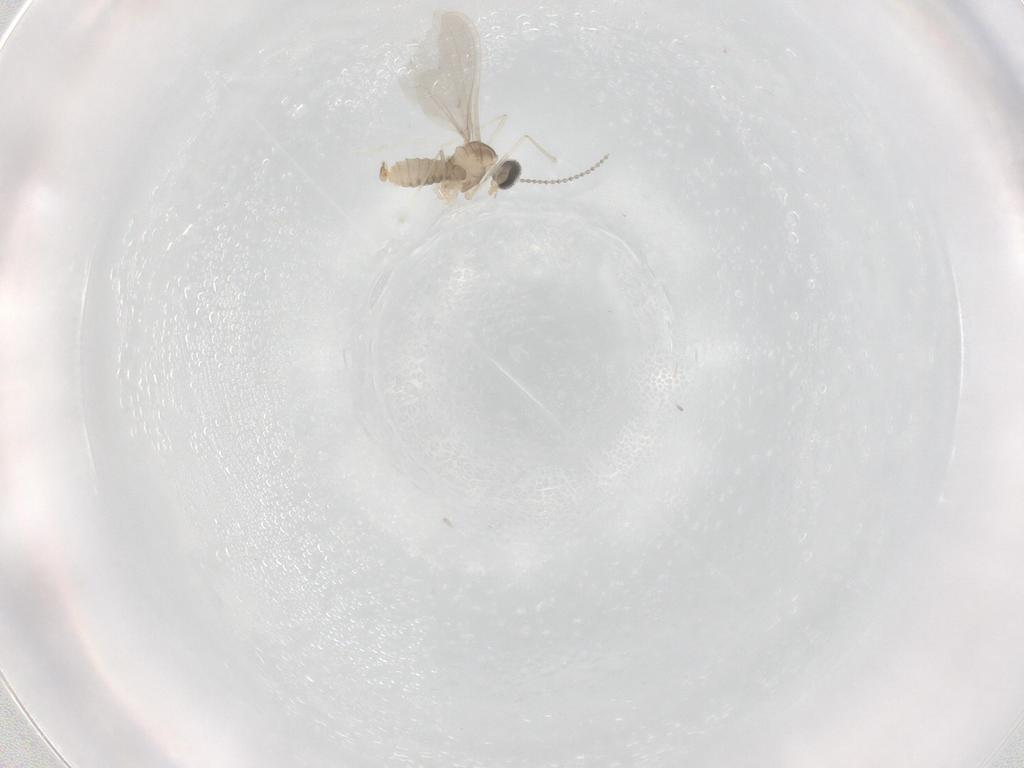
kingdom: Animalia
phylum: Arthropoda
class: Insecta
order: Diptera
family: Cecidomyiidae
